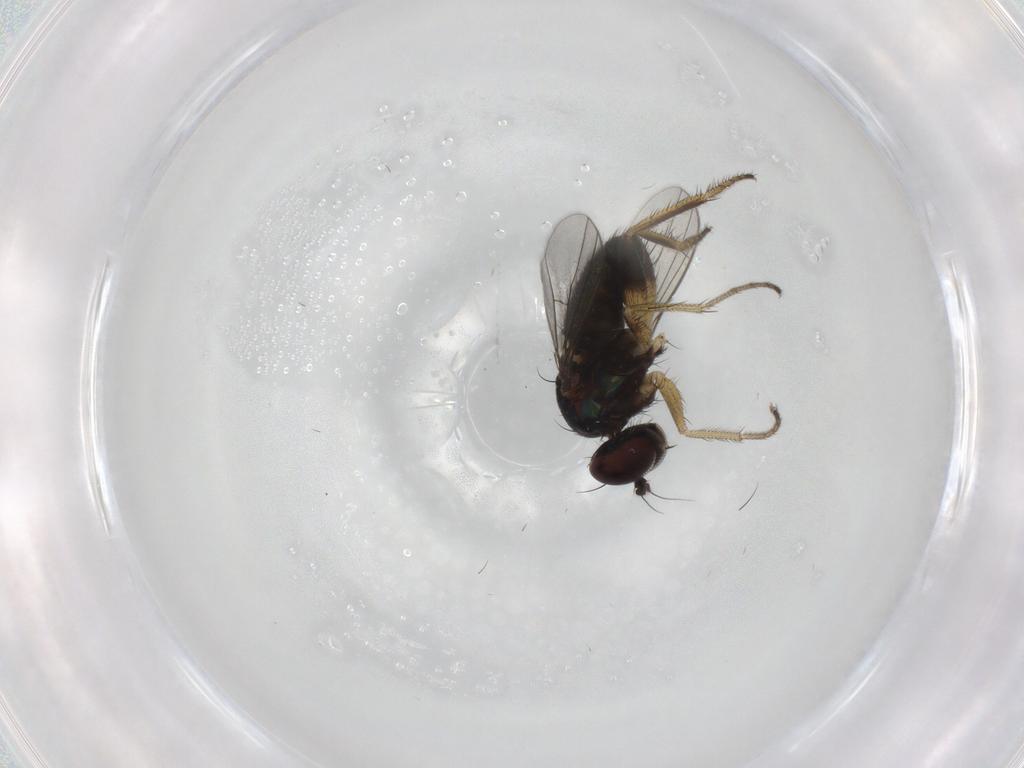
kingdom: Animalia
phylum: Arthropoda
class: Insecta
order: Diptera
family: Dolichopodidae
